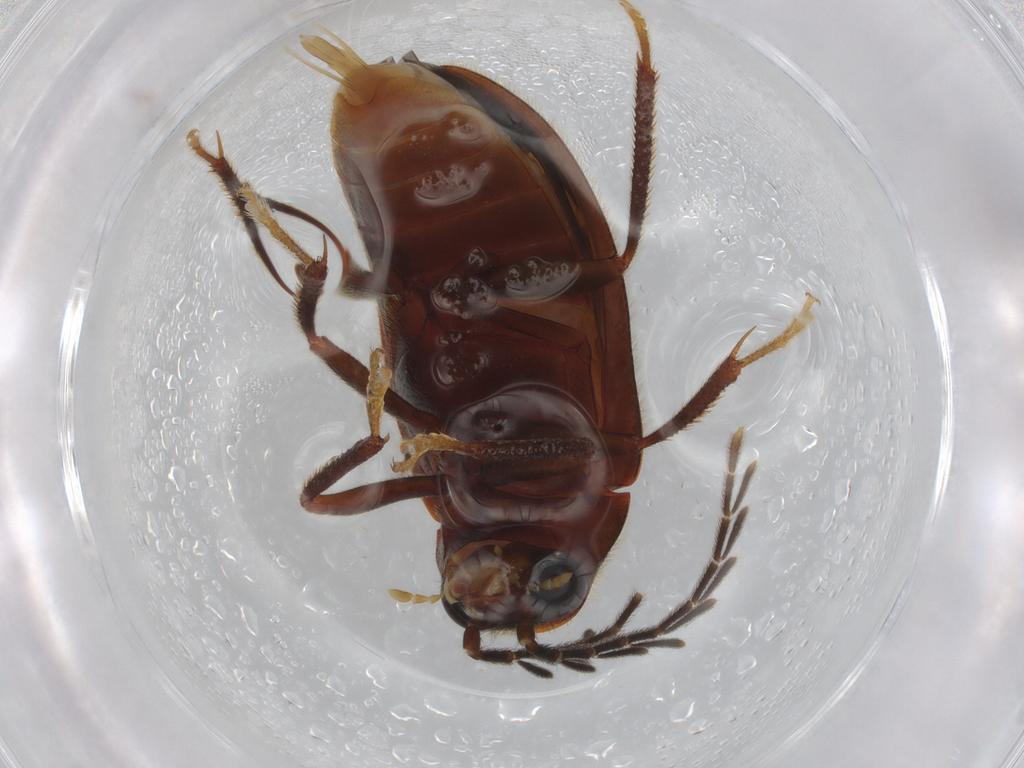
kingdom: Animalia
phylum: Arthropoda
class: Insecta
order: Coleoptera
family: Ptilodactylidae
